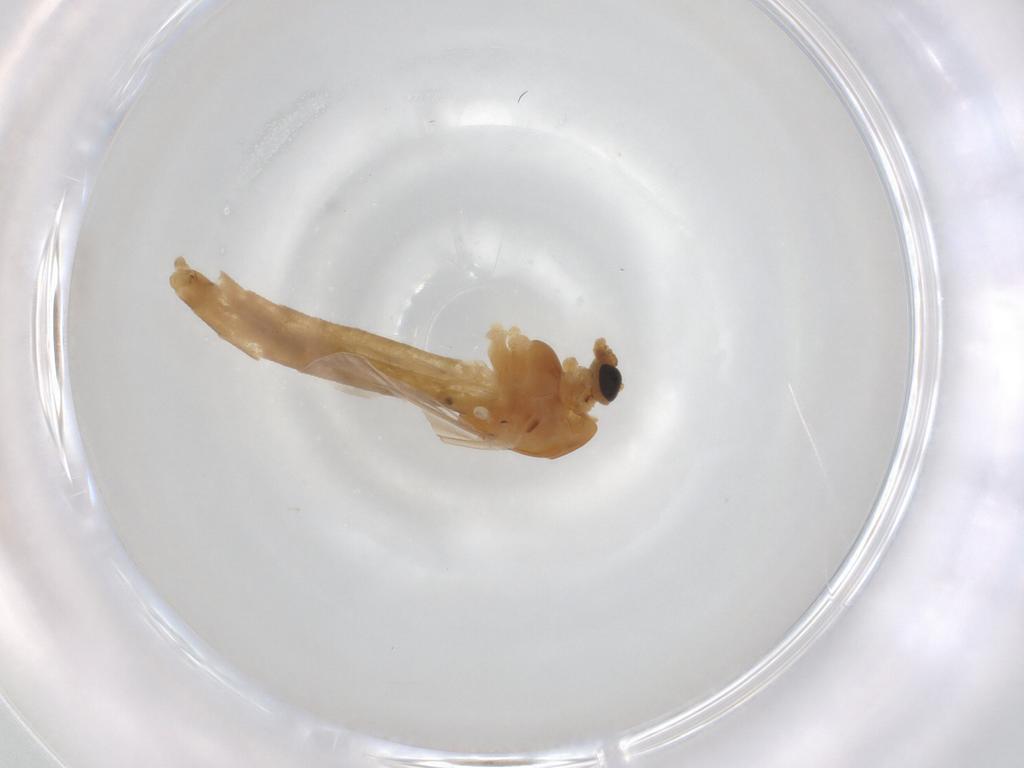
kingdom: Animalia
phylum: Arthropoda
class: Insecta
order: Diptera
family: Chironomidae
